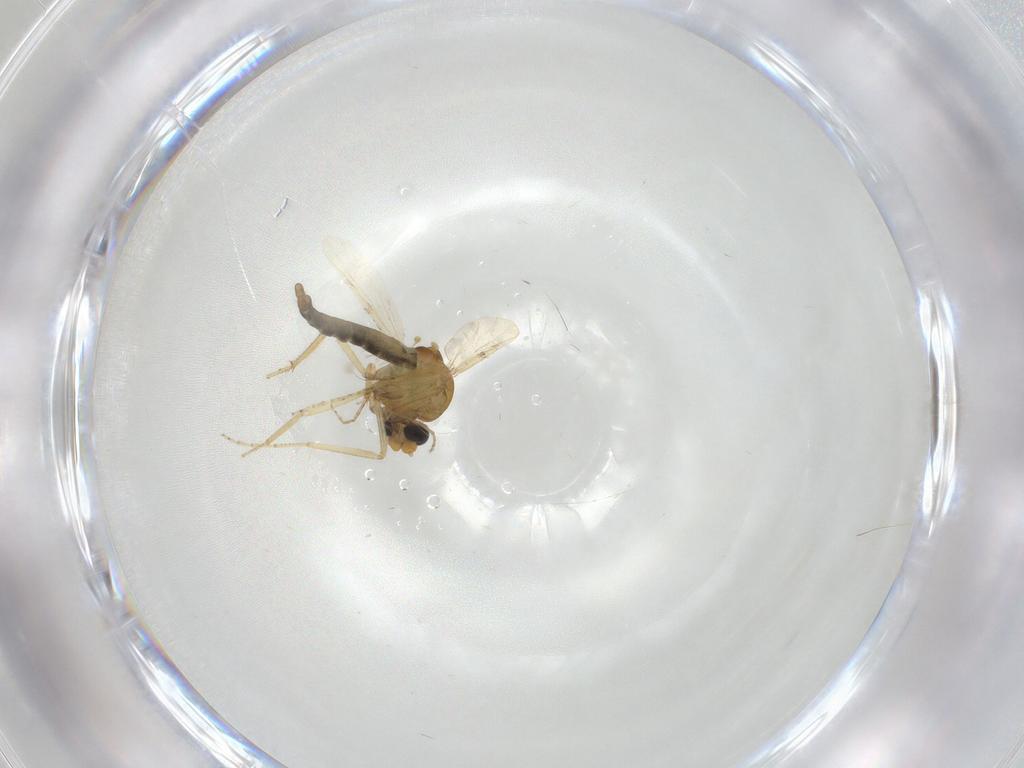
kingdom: Animalia
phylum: Arthropoda
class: Insecta
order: Diptera
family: Ceratopogonidae
